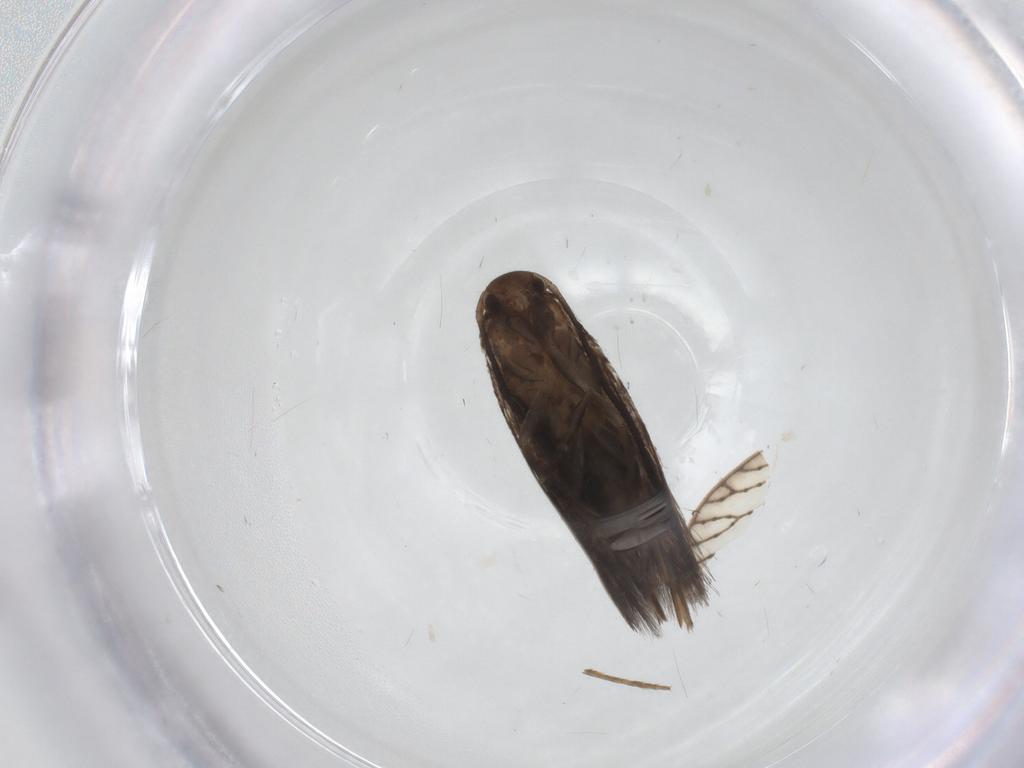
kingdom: Animalia
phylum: Arthropoda
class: Insecta
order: Lepidoptera
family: Elachistidae
